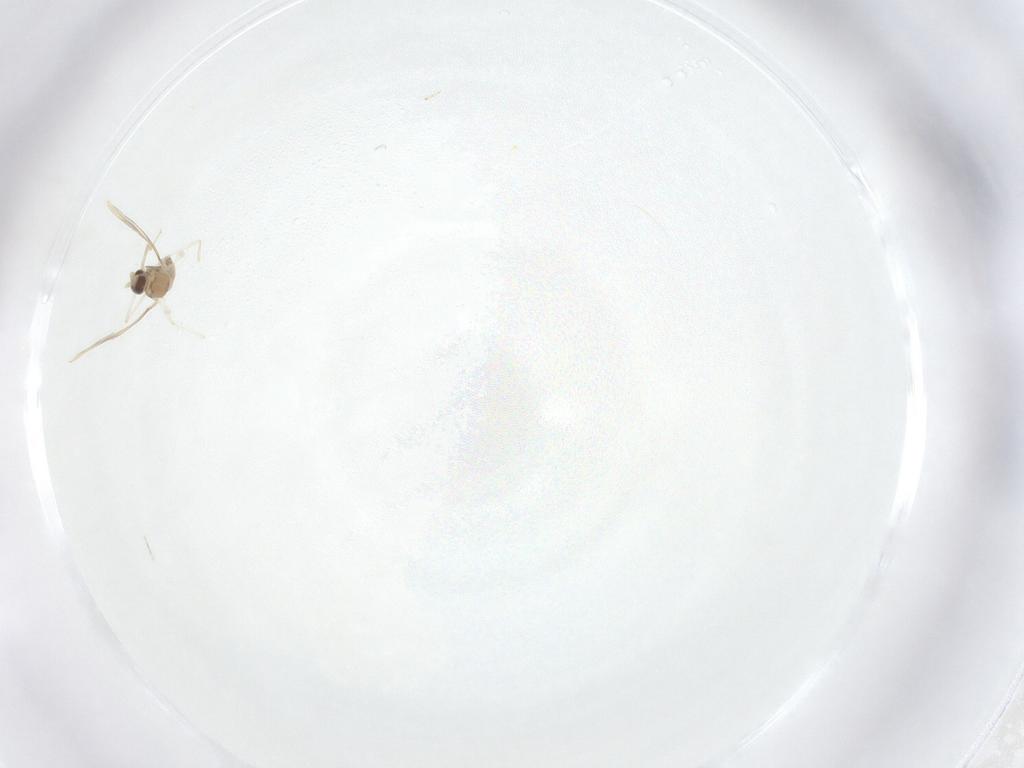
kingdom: Animalia
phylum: Arthropoda
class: Insecta
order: Diptera
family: Cecidomyiidae
